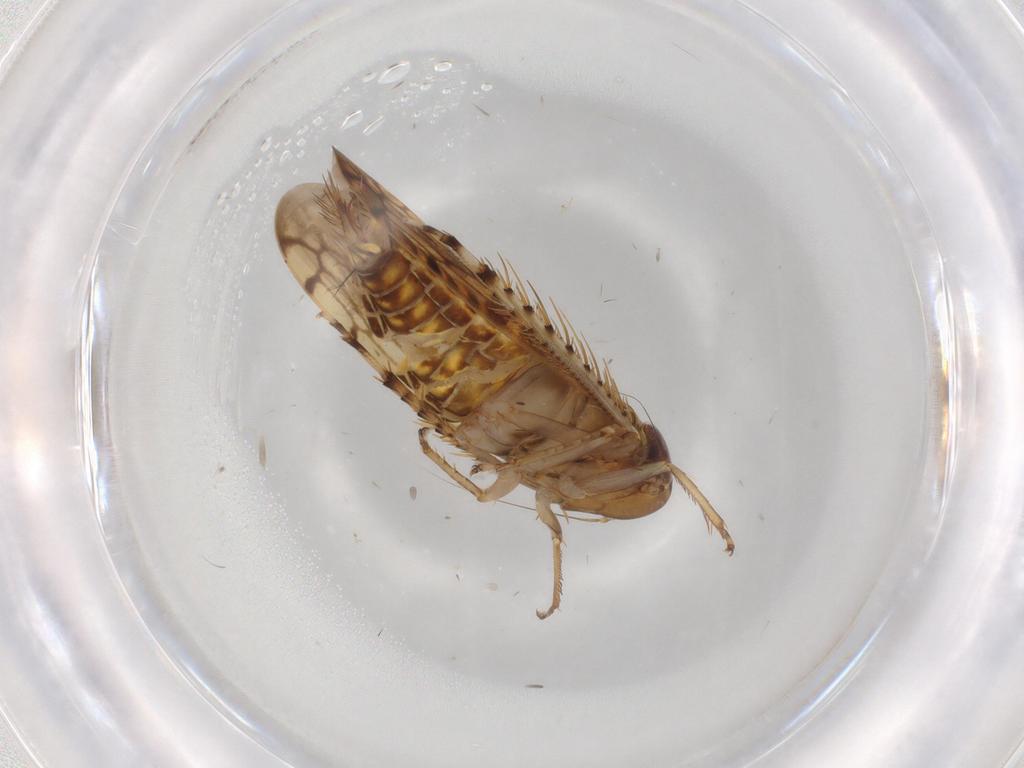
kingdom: Animalia
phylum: Arthropoda
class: Insecta
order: Hemiptera
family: Cicadellidae
